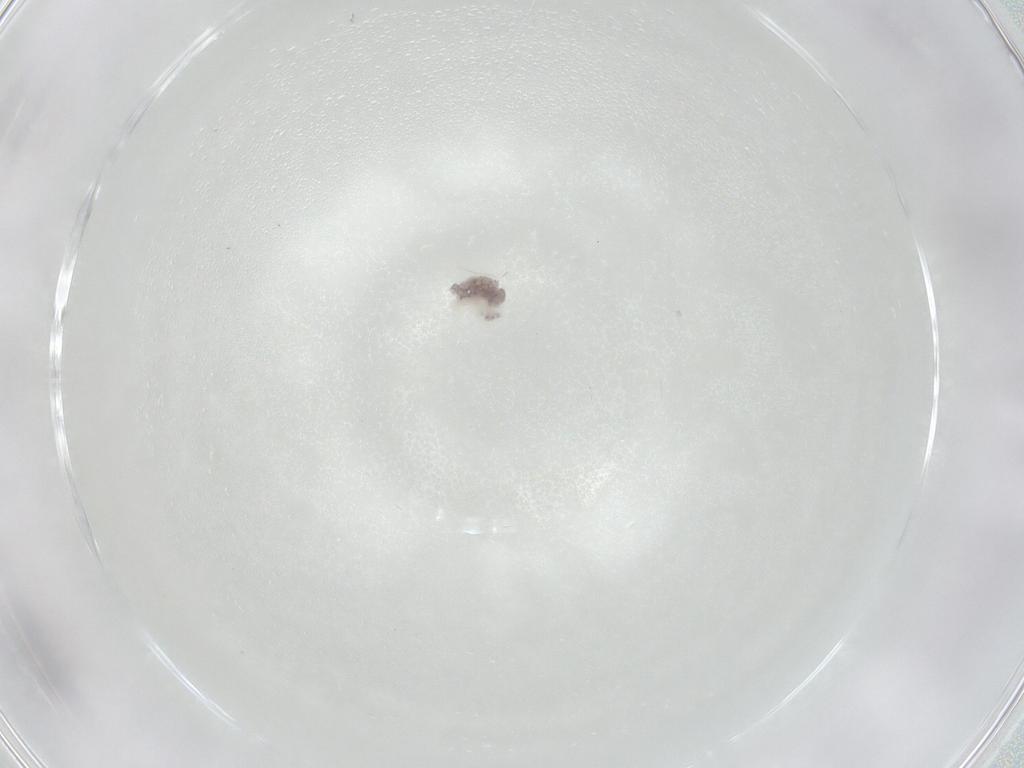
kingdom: Animalia
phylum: Arthropoda
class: Arachnida
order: Trombidiformes
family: Eupodidae
